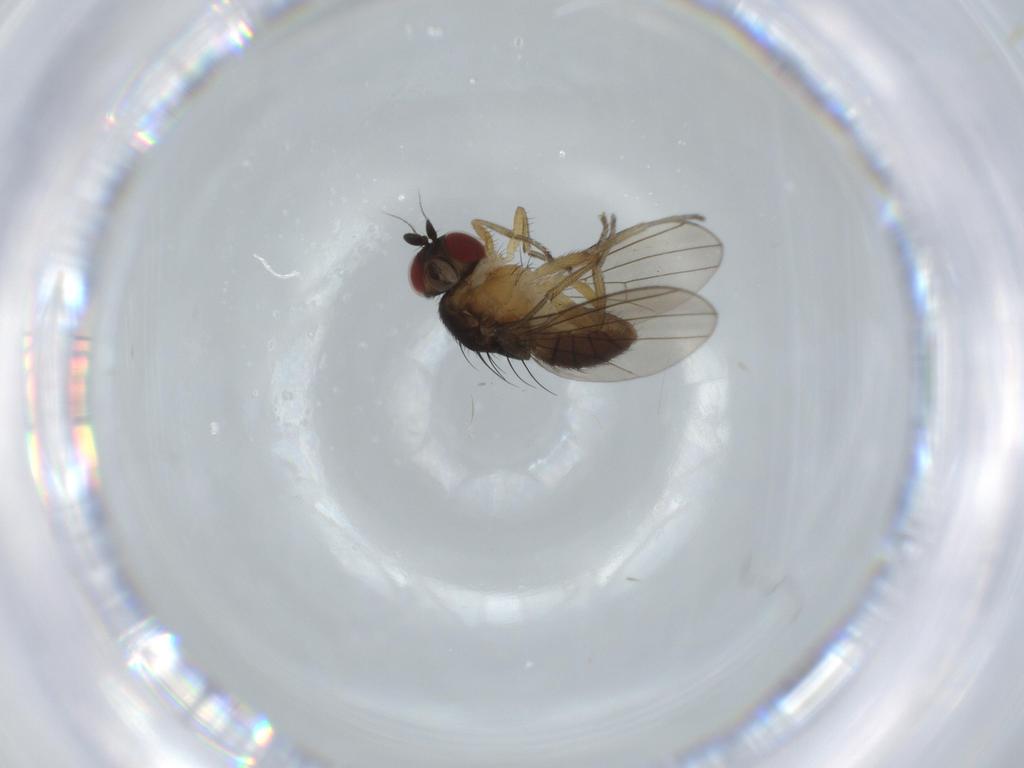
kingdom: Animalia
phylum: Arthropoda
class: Insecta
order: Diptera
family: Lauxaniidae
